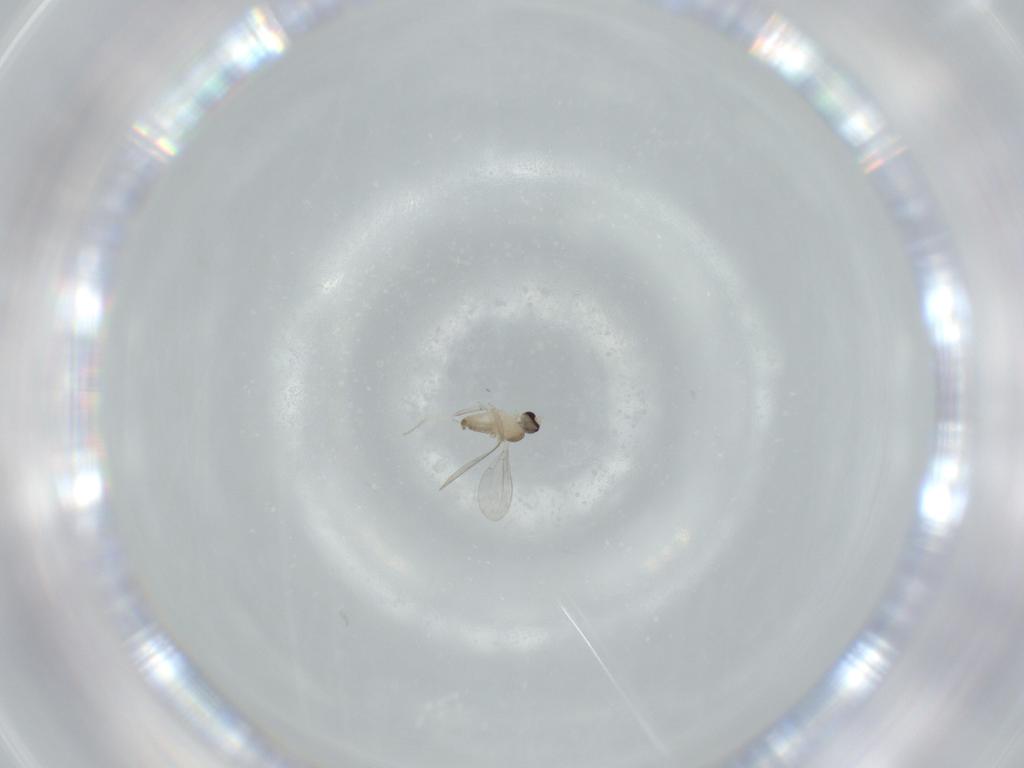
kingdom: Animalia
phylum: Arthropoda
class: Insecta
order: Diptera
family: Cecidomyiidae
